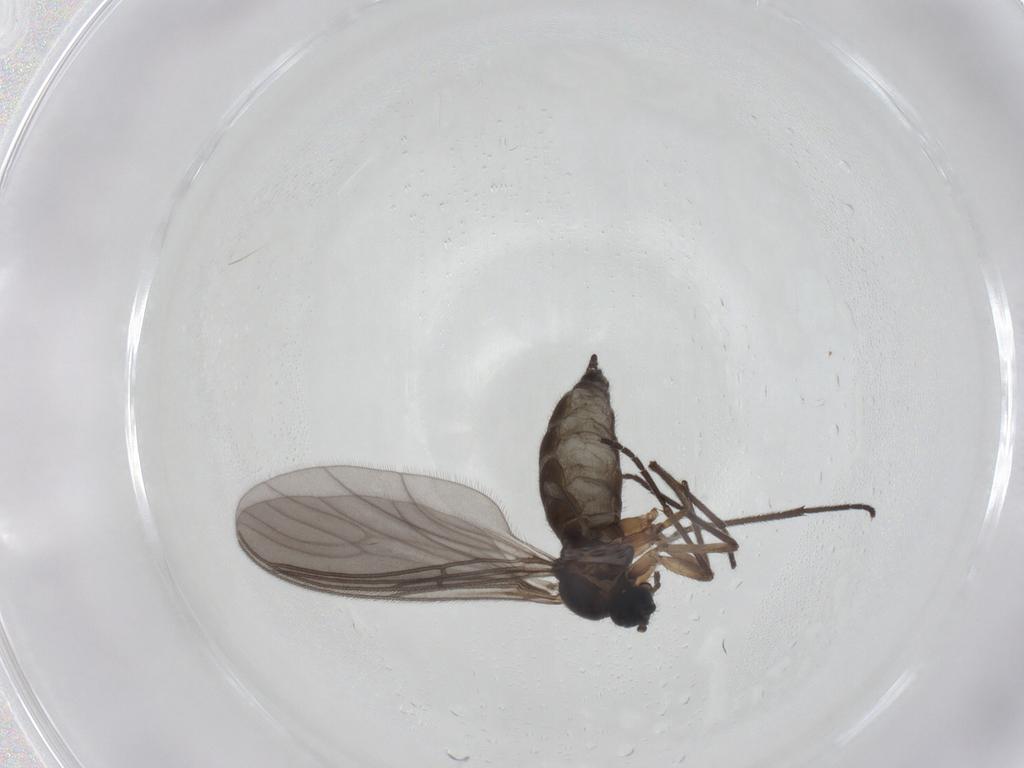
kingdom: Animalia
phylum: Arthropoda
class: Insecta
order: Diptera
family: Sciaridae
